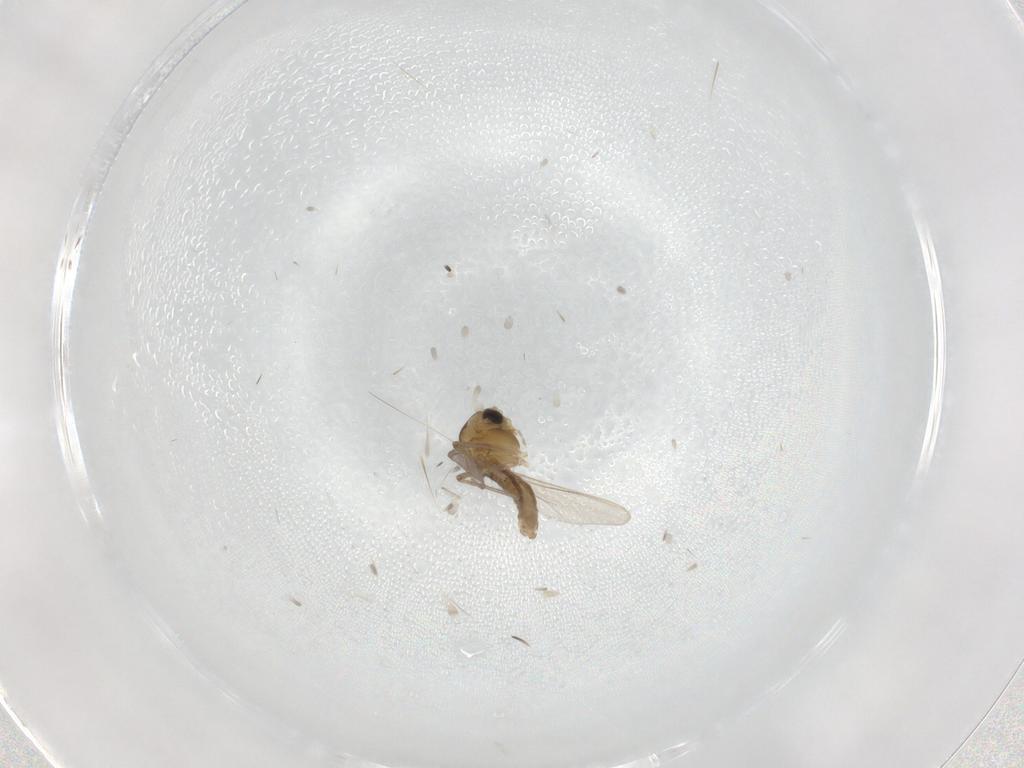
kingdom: Animalia
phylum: Arthropoda
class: Insecta
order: Diptera
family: Chironomidae
